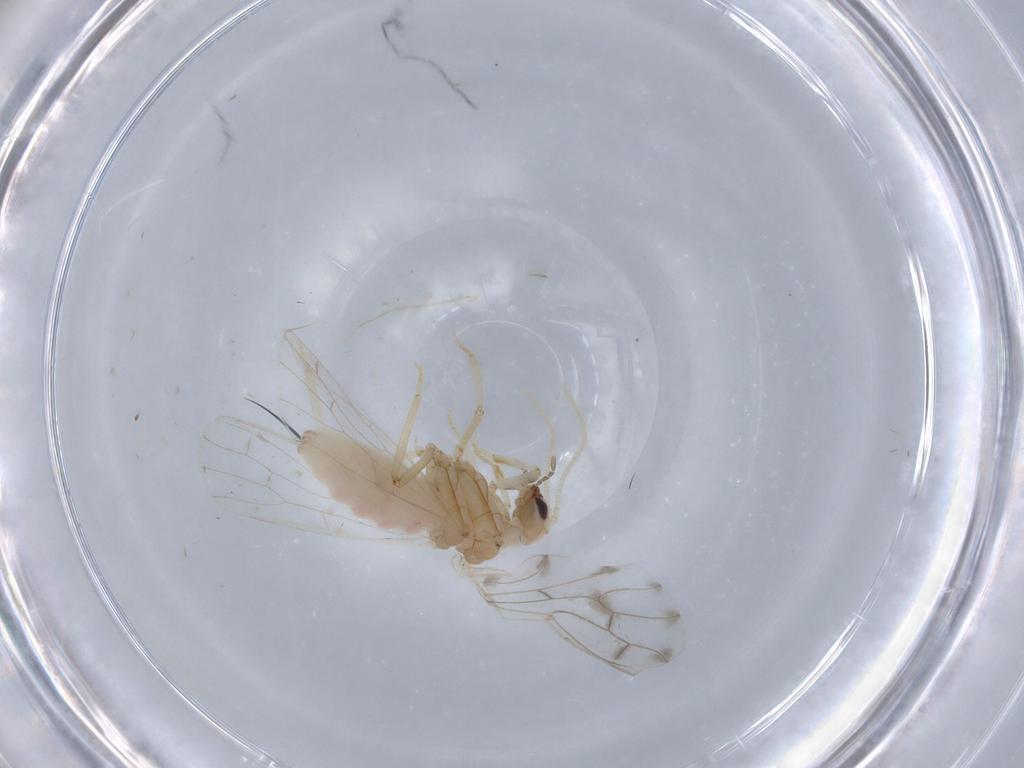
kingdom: Animalia
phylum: Arthropoda
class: Insecta
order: Neuroptera
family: Coniopterygidae
